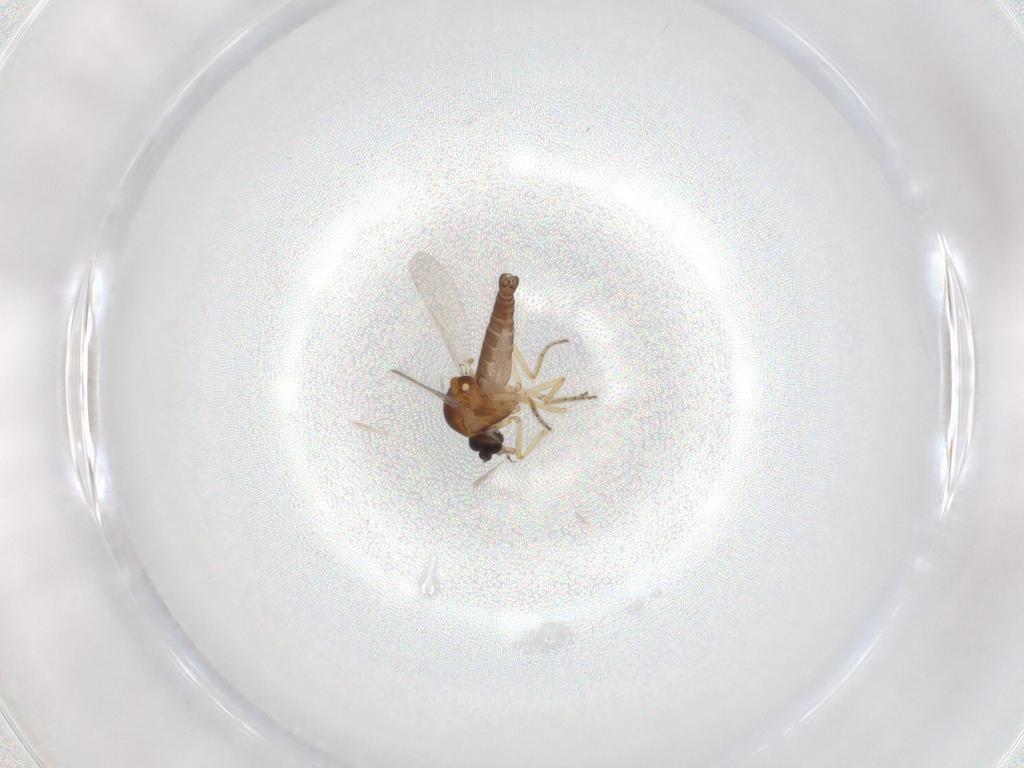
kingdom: Animalia
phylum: Arthropoda
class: Insecta
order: Diptera
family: Ceratopogonidae
